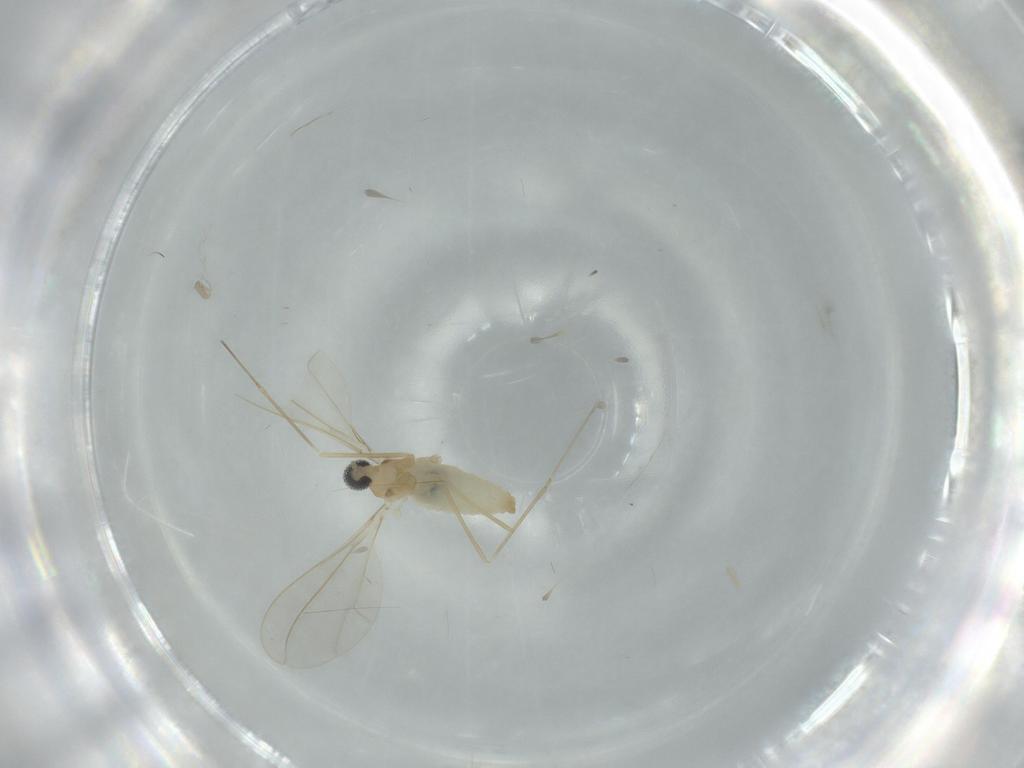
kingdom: Animalia
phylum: Arthropoda
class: Insecta
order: Diptera
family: Cecidomyiidae
